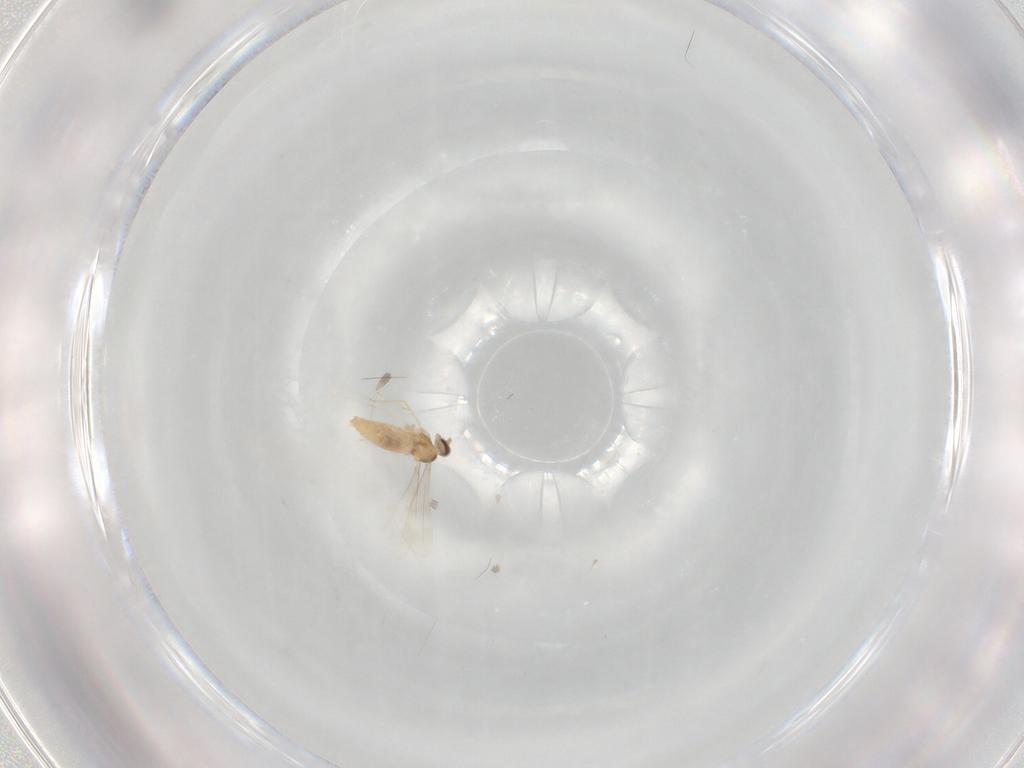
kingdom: Animalia
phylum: Arthropoda
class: Insecta
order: Diptera
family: Cecidomyiidae
